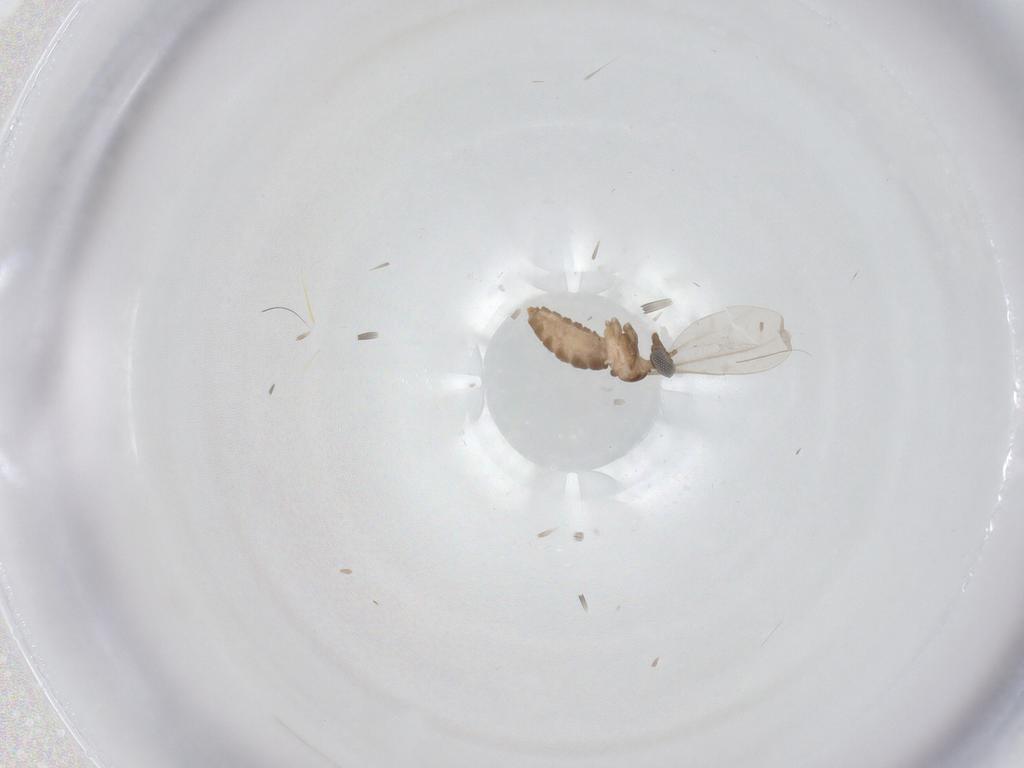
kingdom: Animalia
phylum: Arthropoda
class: Insecta
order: Diptera
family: Cecidomyiidae
